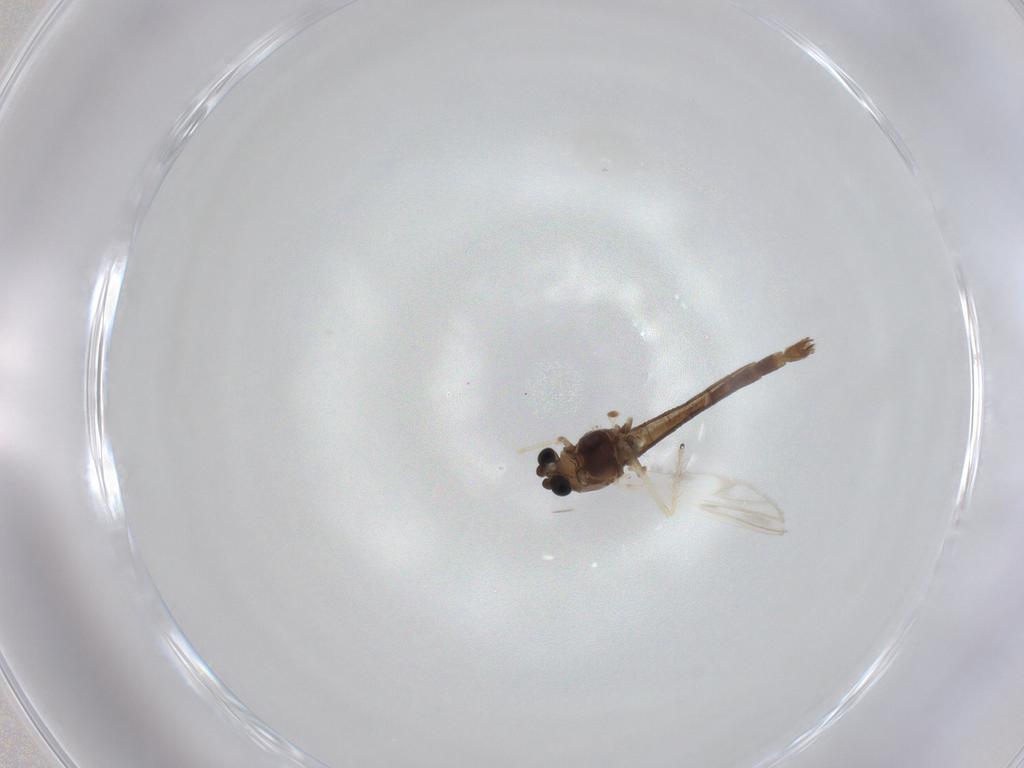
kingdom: Animalia
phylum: Arthropoda
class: Insecta
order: Diptera
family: Chironomidae
